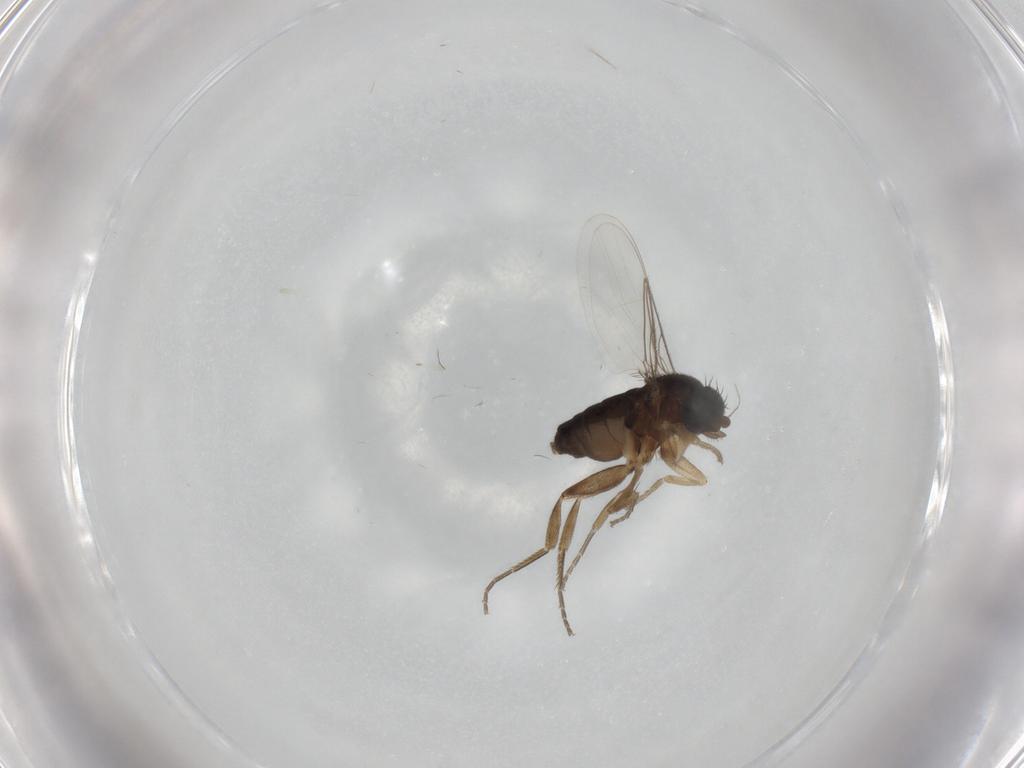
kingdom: Animalia
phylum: Arthropoda
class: Insecta
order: Diptera
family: Phoridae
